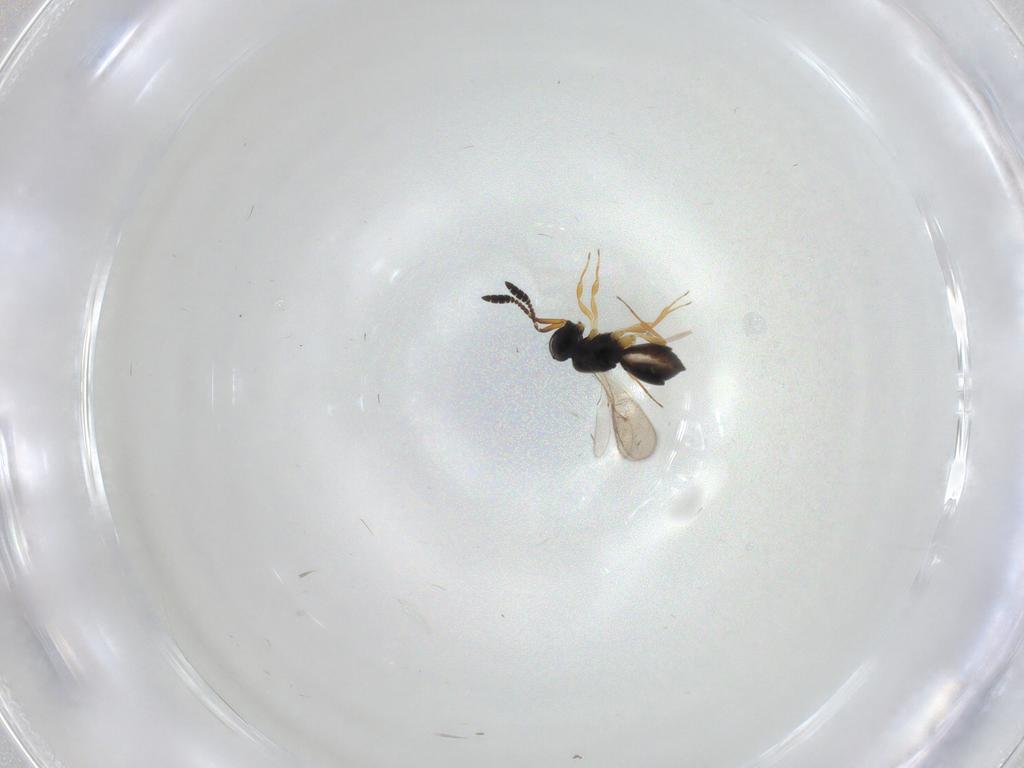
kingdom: Animalia
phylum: Arthropoda
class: Insecta
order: Hymenoptera
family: Scelionidae
